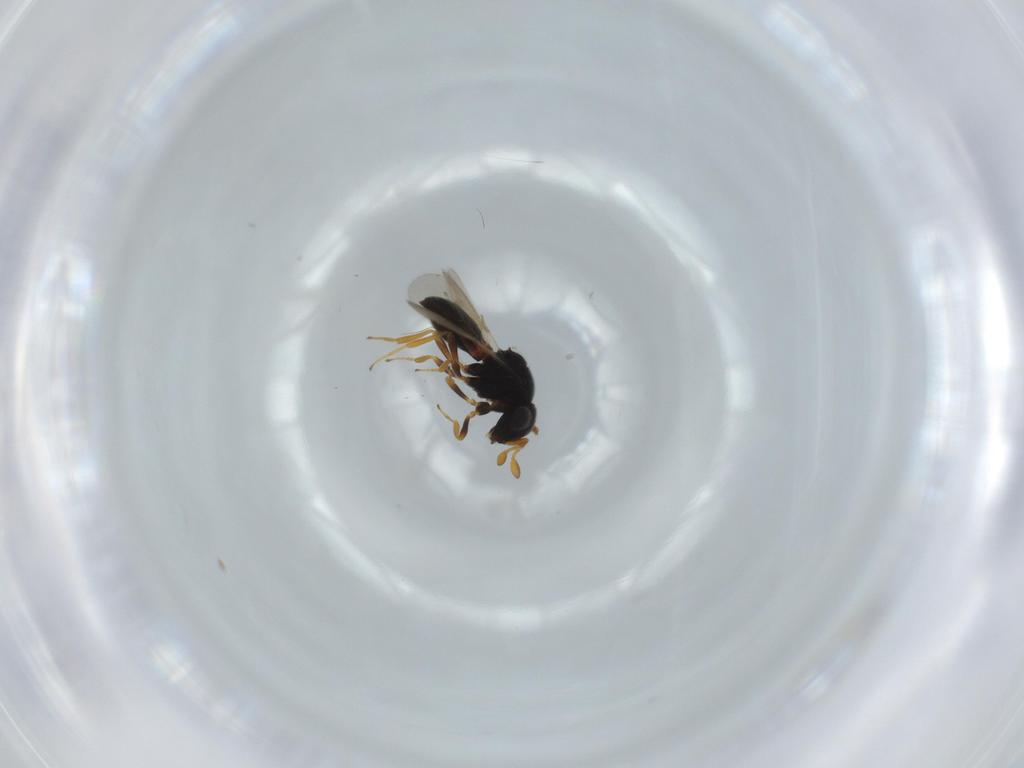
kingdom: Animalia
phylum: Arthropoda
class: Insecta
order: Hymenoptera
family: Scelionidae
